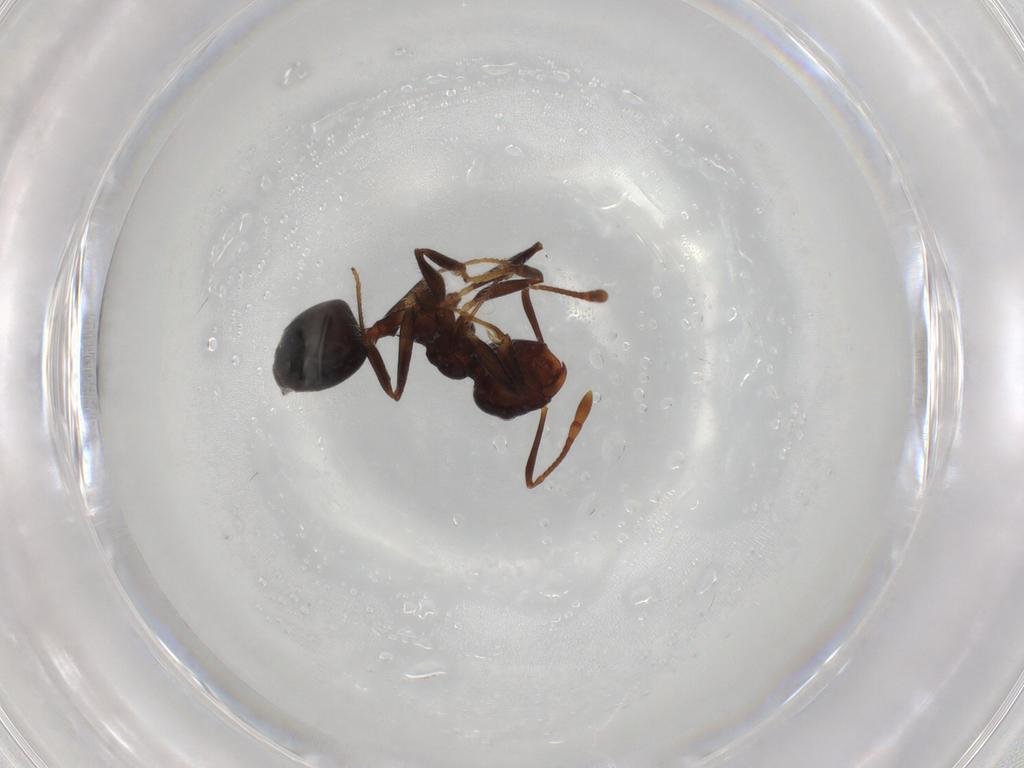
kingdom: Animalia
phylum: Arthropoda
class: Insecta
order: Hymenoptera
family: Formicidae
